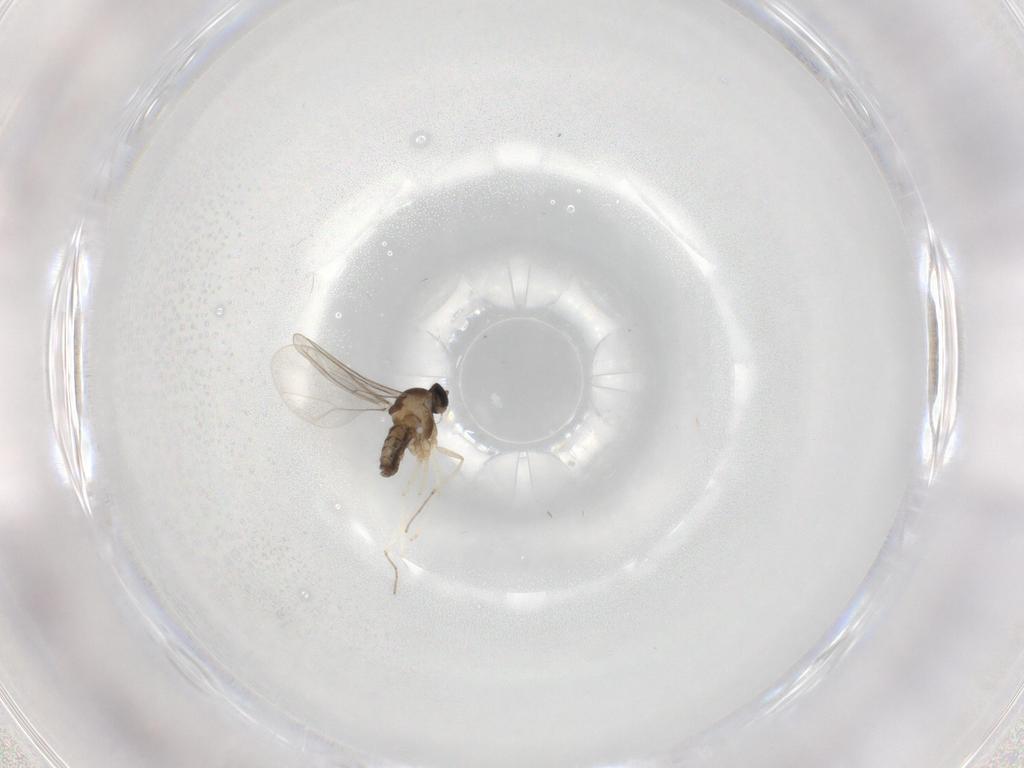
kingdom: Animalia
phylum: Arthropoda
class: Insecta
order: Diptera
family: Cecidomyiidae
